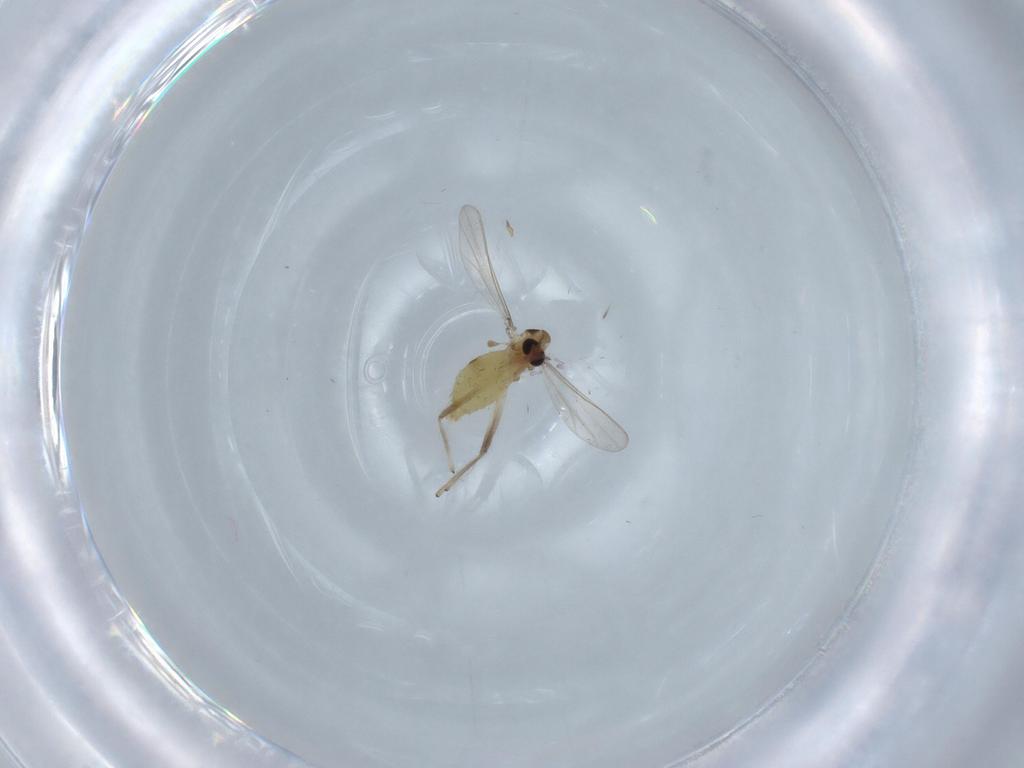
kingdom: Animalia
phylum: Arthropoda
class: Insecta
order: Diptera
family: Chironomidae
